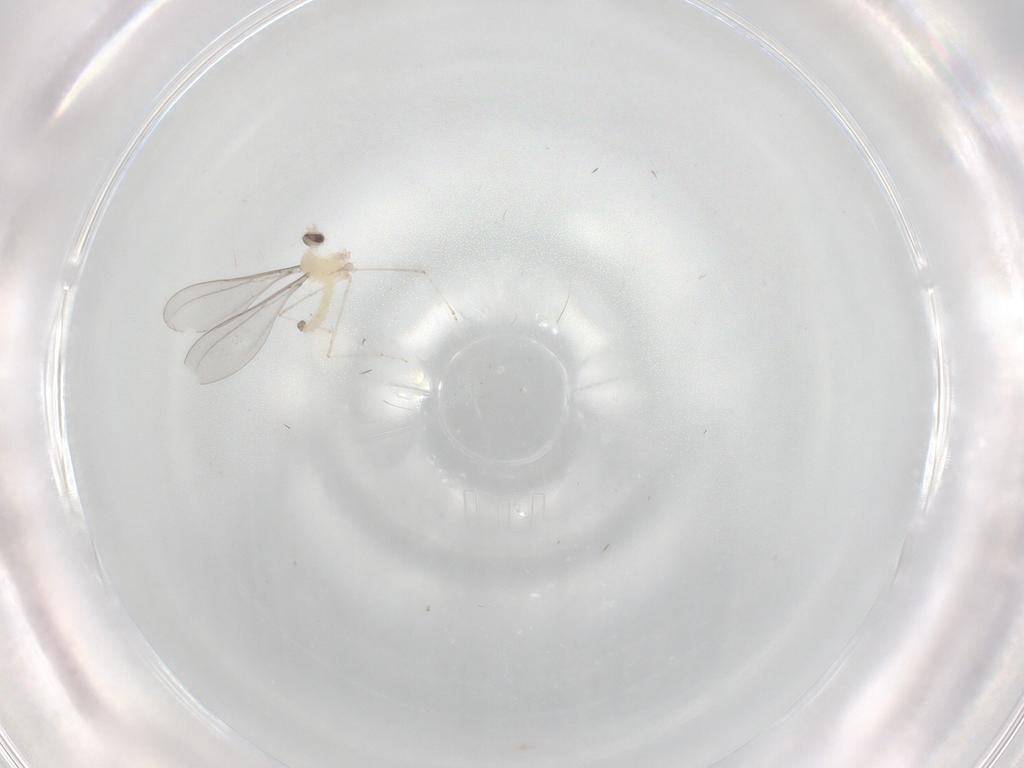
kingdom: Animalia
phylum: Arthropoda
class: Insecta
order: Diptera
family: Cecidomyiidae
